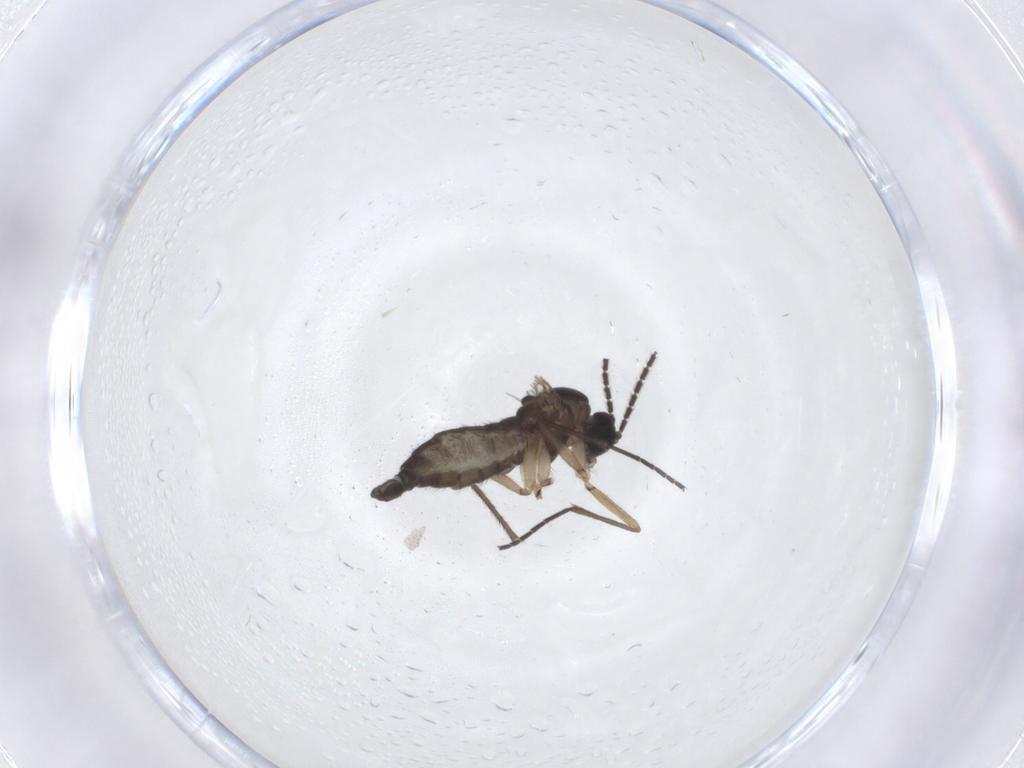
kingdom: Animalia
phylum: Arthropoda
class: Insecta
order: Diptera
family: Sciaridae
